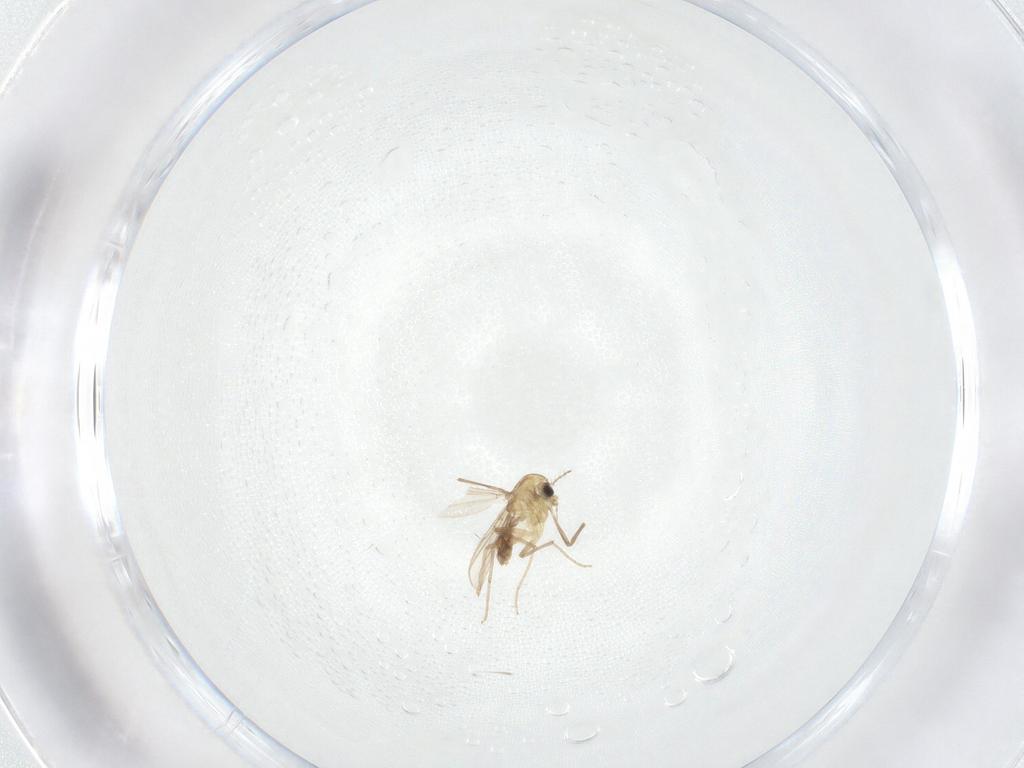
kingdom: Animalia
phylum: Arthropoda
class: Insecta
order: Diptera
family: Chironomidae
